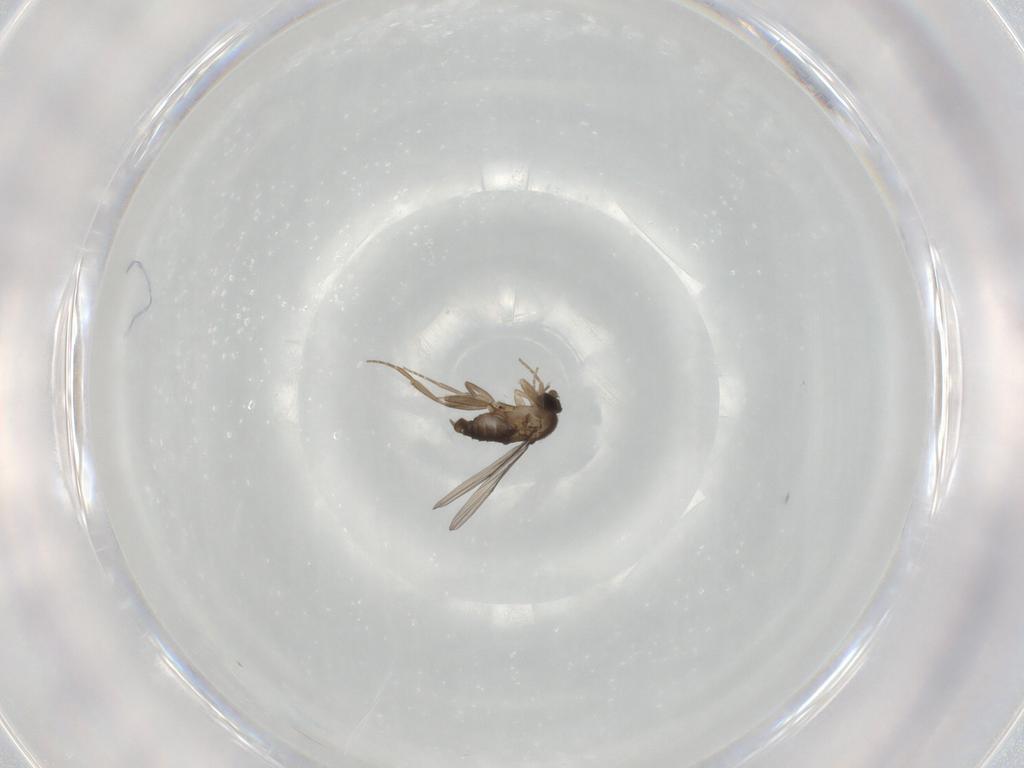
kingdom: Animalia
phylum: Arthropoda
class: Insecta
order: Diptera
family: Phoridae
